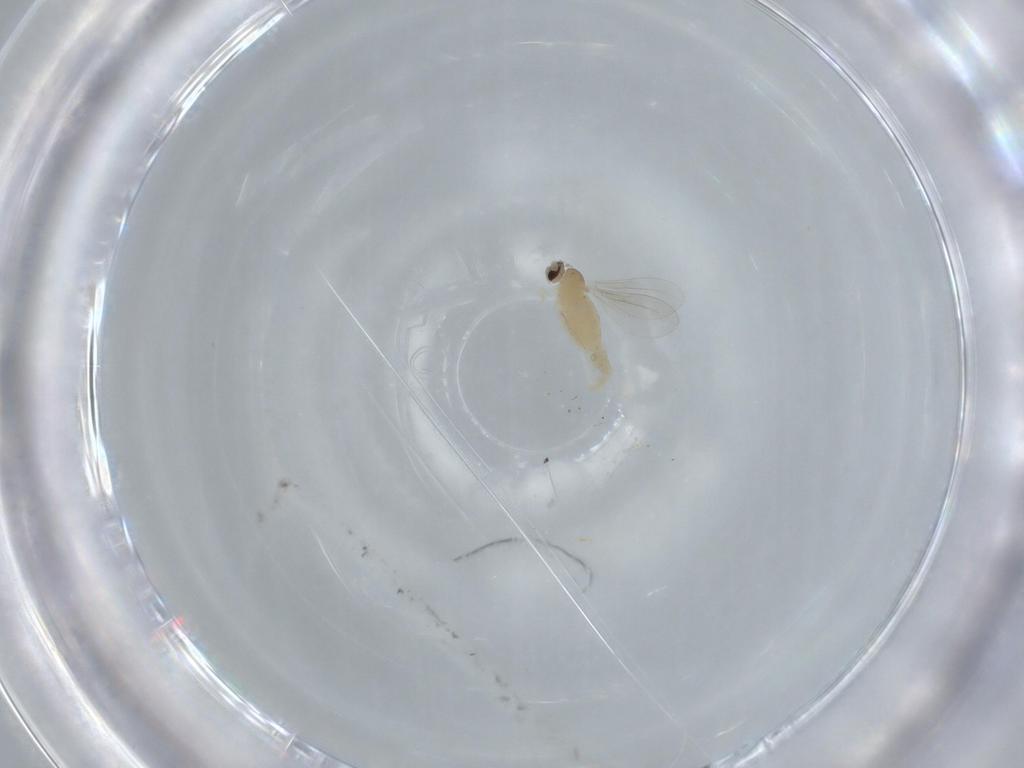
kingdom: Animalia
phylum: Arthropoda
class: Insecta
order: Diptera
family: Cecidomyiidae
